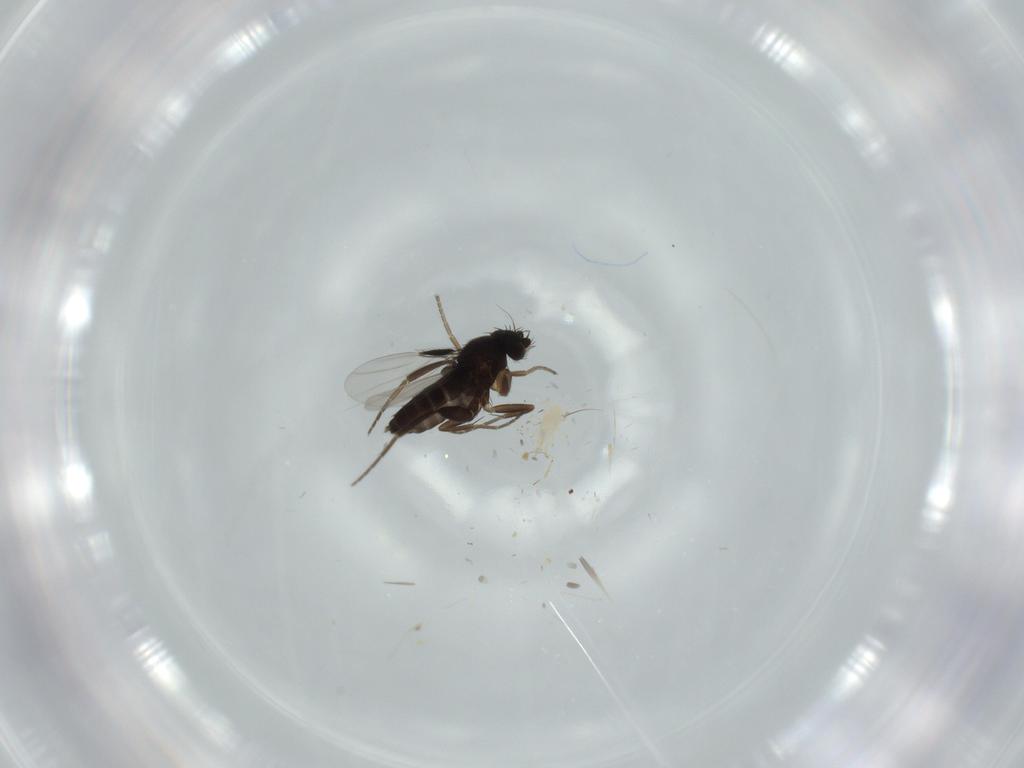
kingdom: Animalia
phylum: Arthropoda
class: Insecta
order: Diptera
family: Chironomidae
